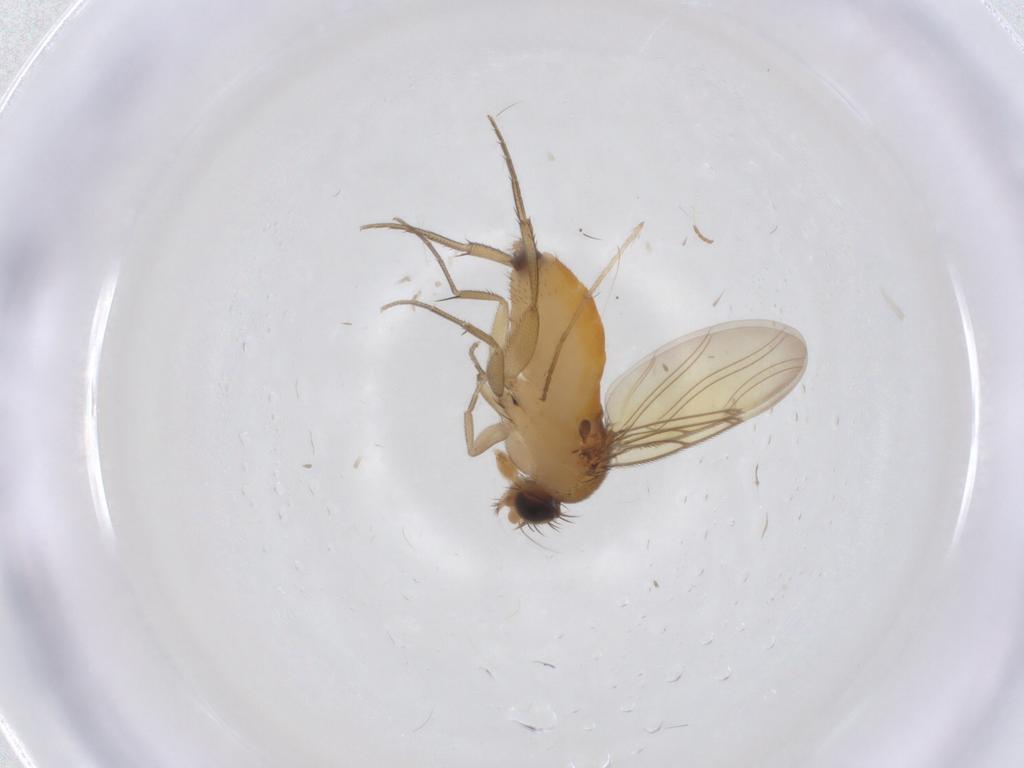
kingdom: Animalia
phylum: Arthropoda
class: Insecta
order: Diptera
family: Chironomidae
